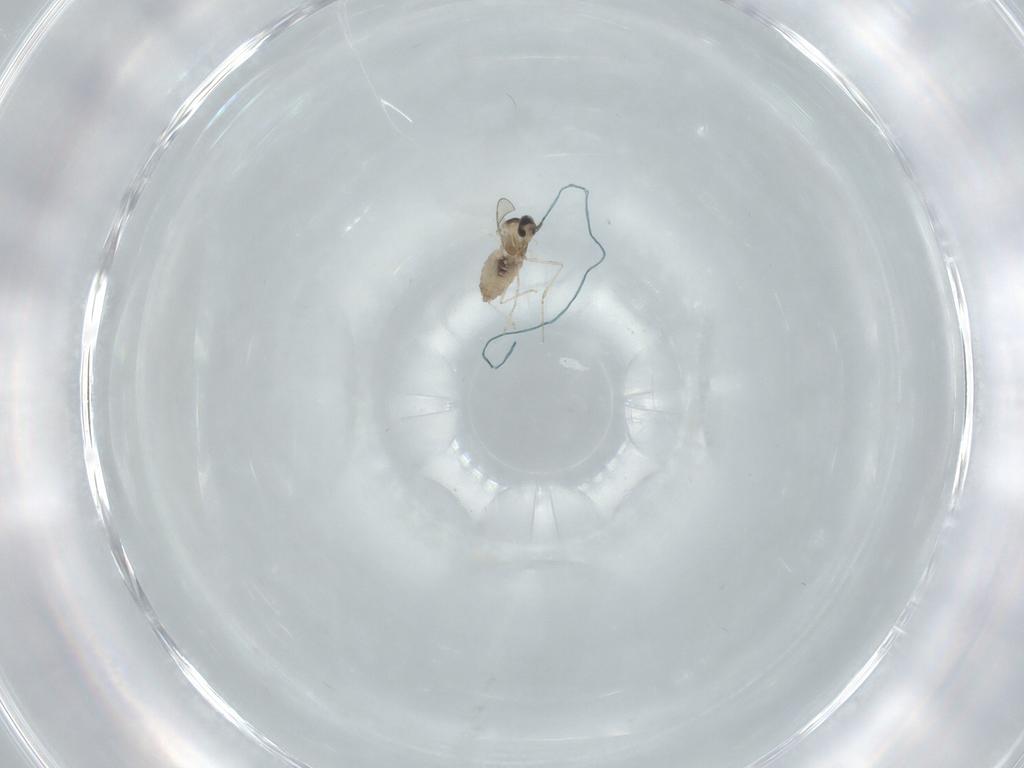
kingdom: Animalia
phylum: Arthropoda
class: Insecta
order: Diptera
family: Cecidomyiidae
